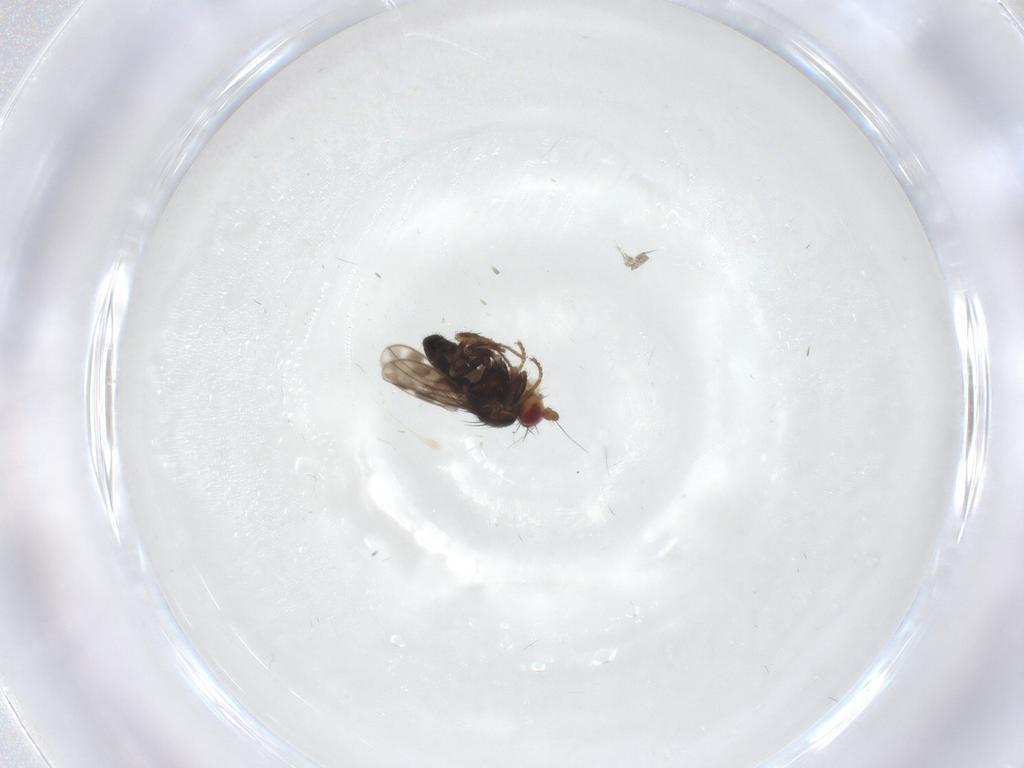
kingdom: Animalia
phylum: Arthropoda
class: Insecta
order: Diptera
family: Sphaeroceridae
